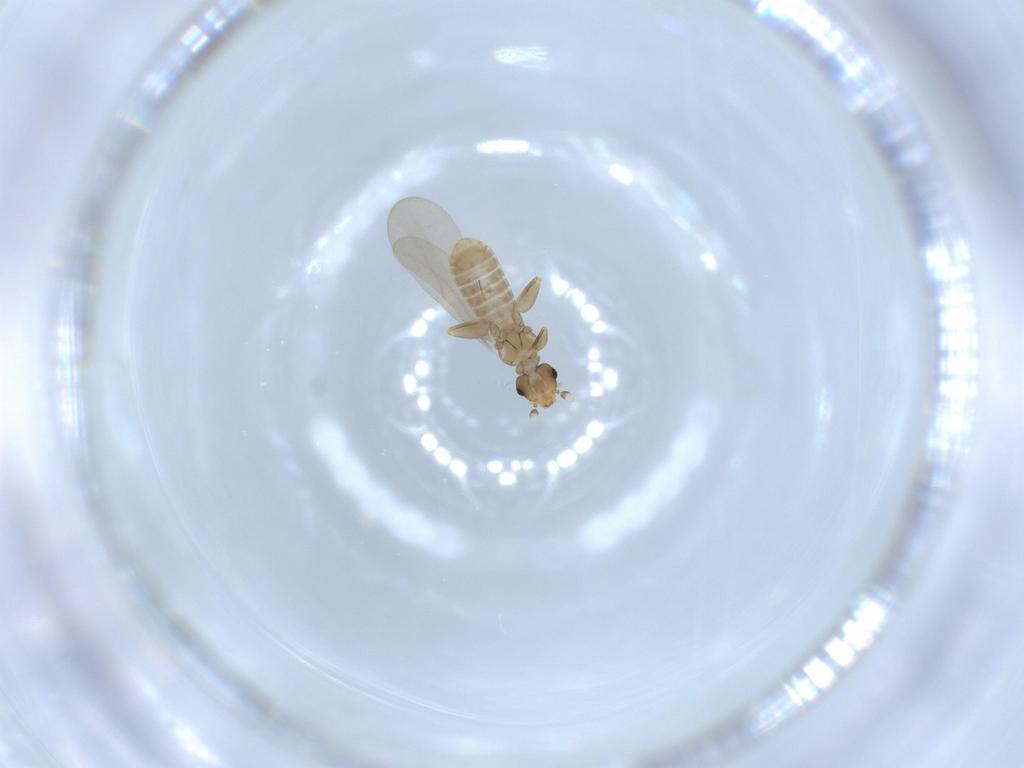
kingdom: Animalia
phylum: Arthropoda
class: Insecta
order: Psocodea
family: Liposcelididae
